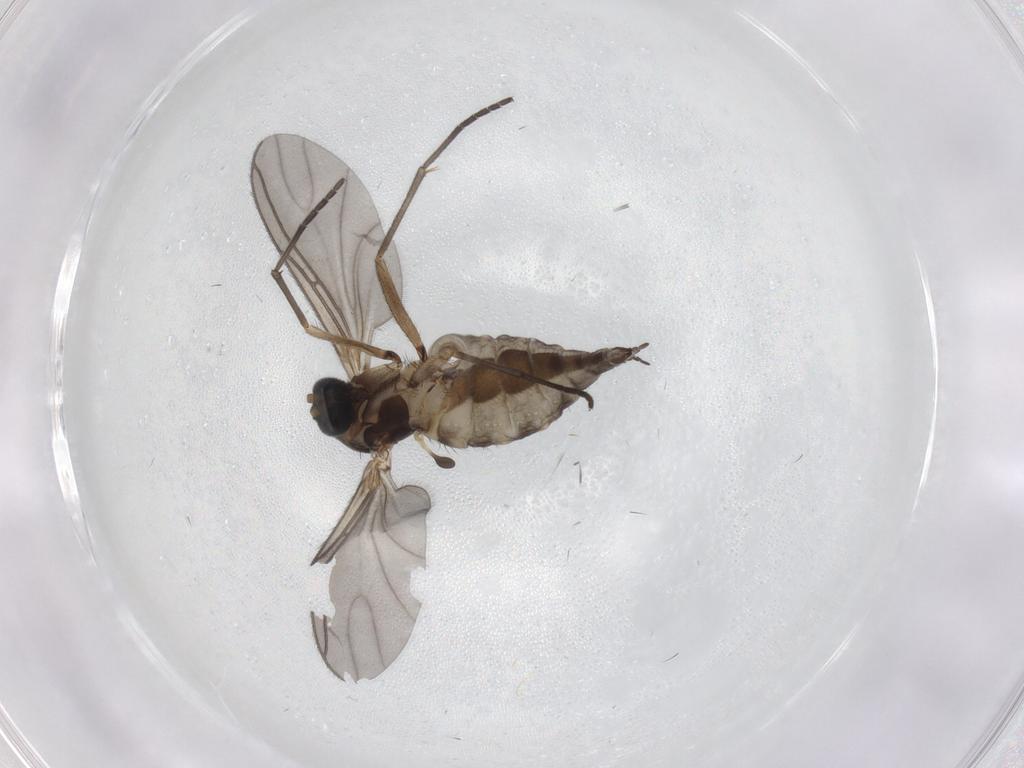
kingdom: Animalia
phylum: Arthropoda
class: Insecta
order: Diptera
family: Sciaridae
